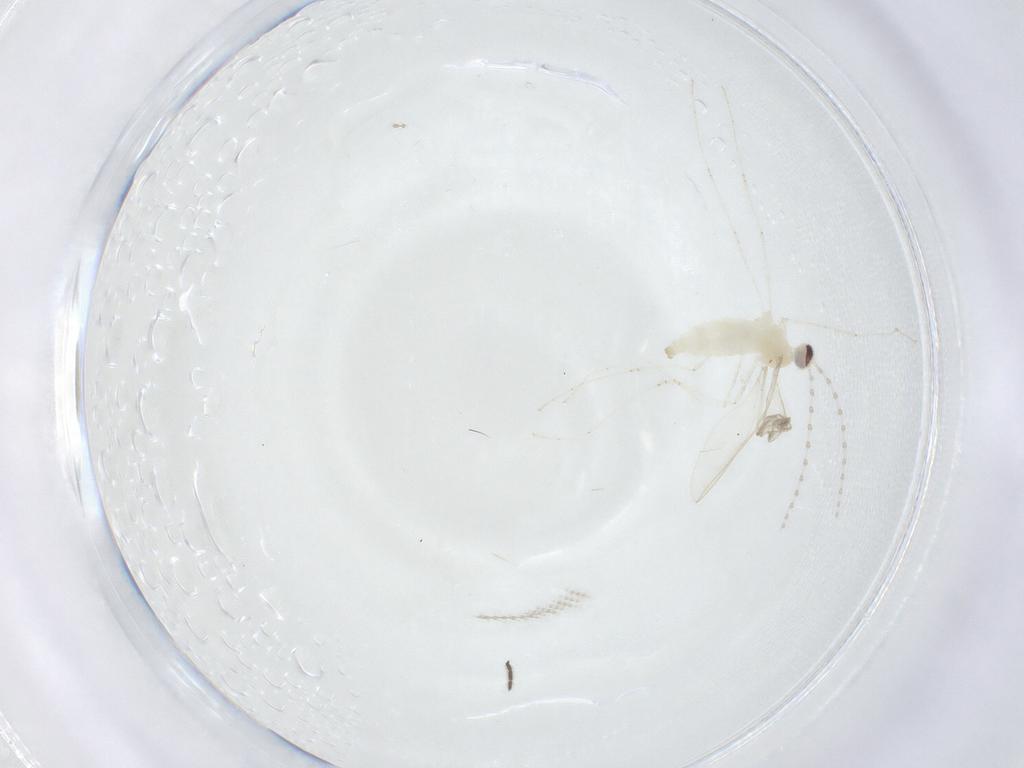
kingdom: Animalia
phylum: Arthropoda
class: Insecta
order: Diptera
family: Cecidomyiidae
